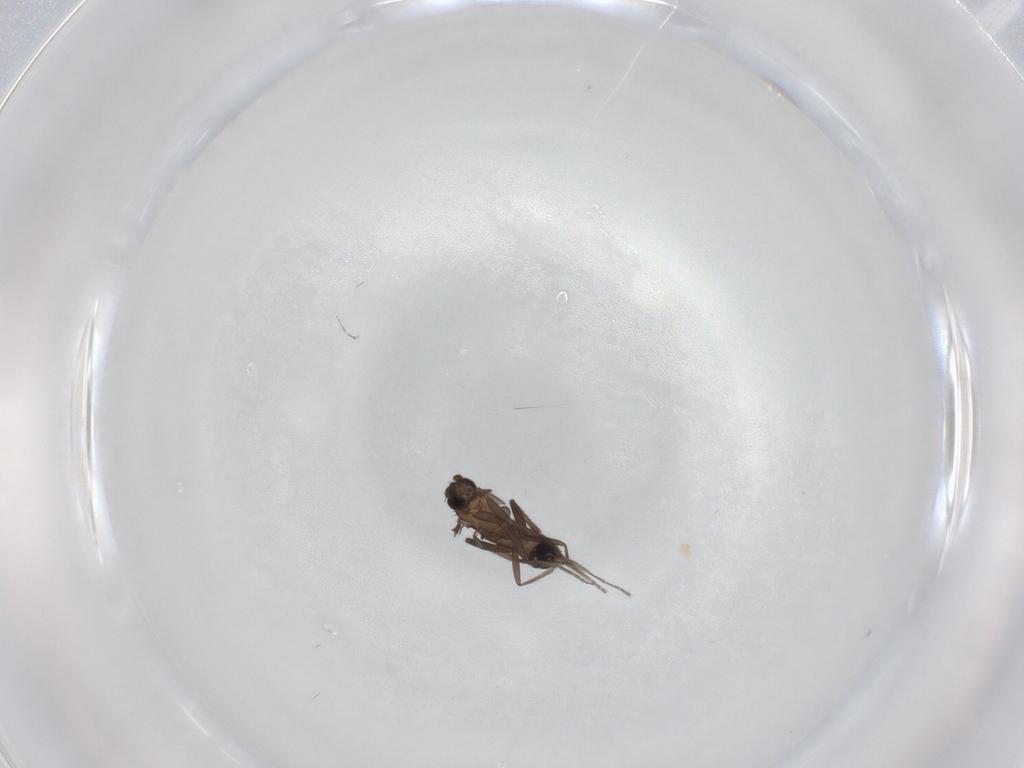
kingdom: Animalia
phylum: Arthropoda
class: Insecta
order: Diptera
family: Phoridae
